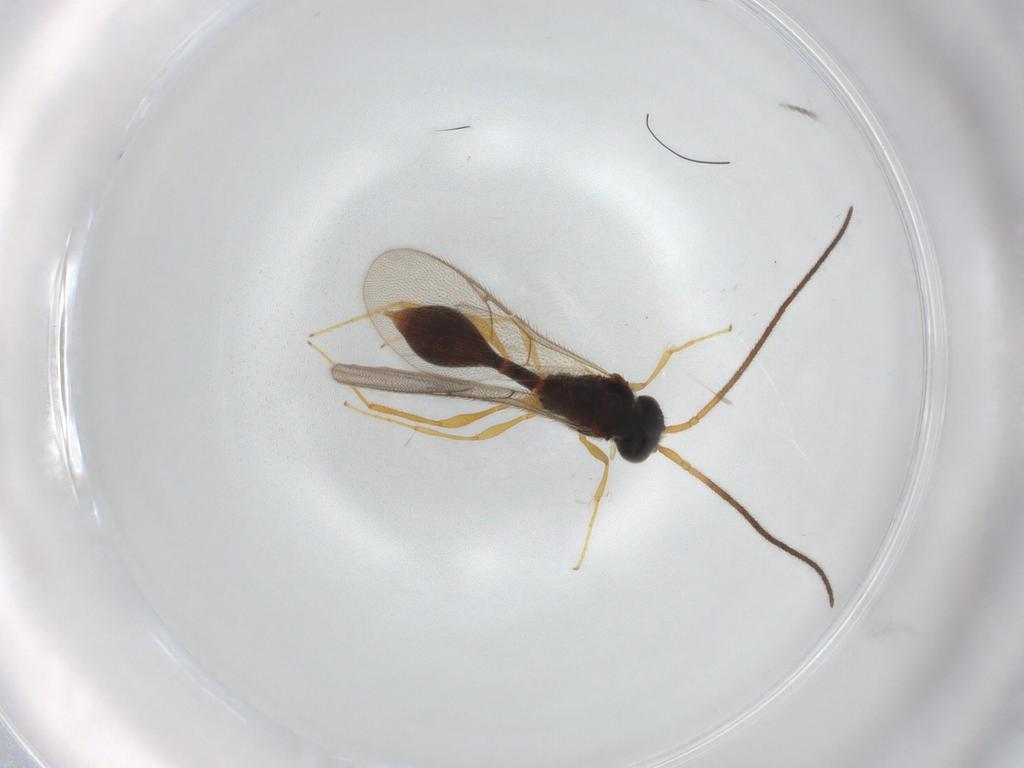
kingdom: Animalia
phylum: Arthropoda
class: Insecta
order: Hymenoptera
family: Diapriidae
